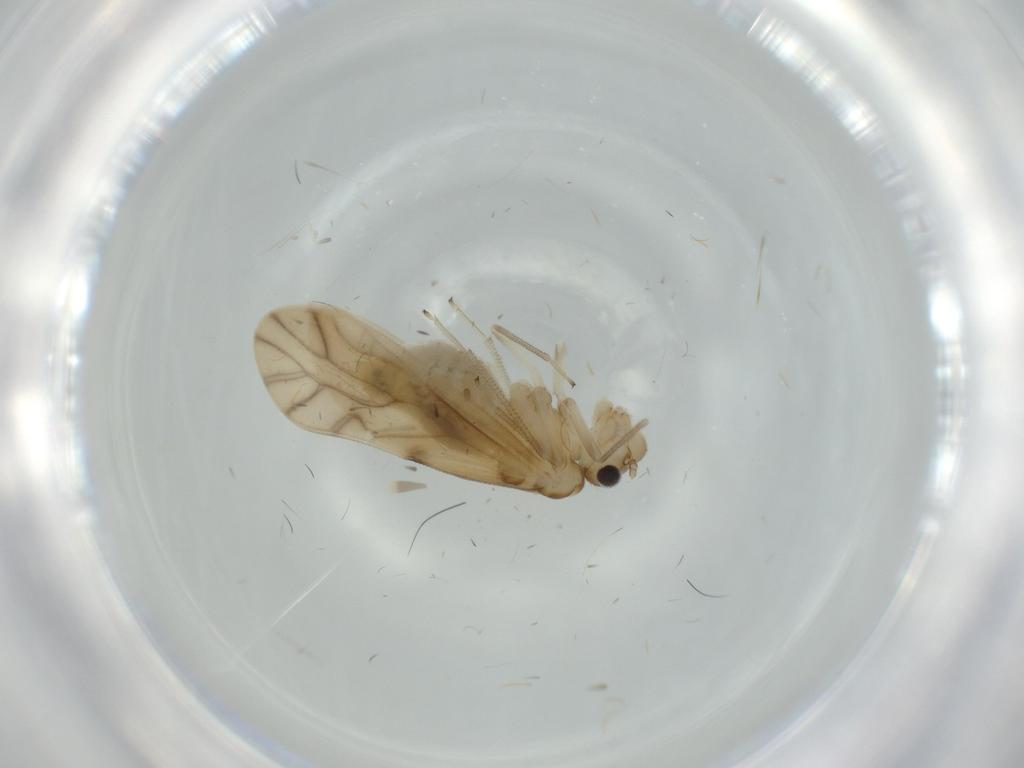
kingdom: Animalia
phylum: Arthropoda
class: Insecta
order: Psocodea
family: Caeciliusidae
